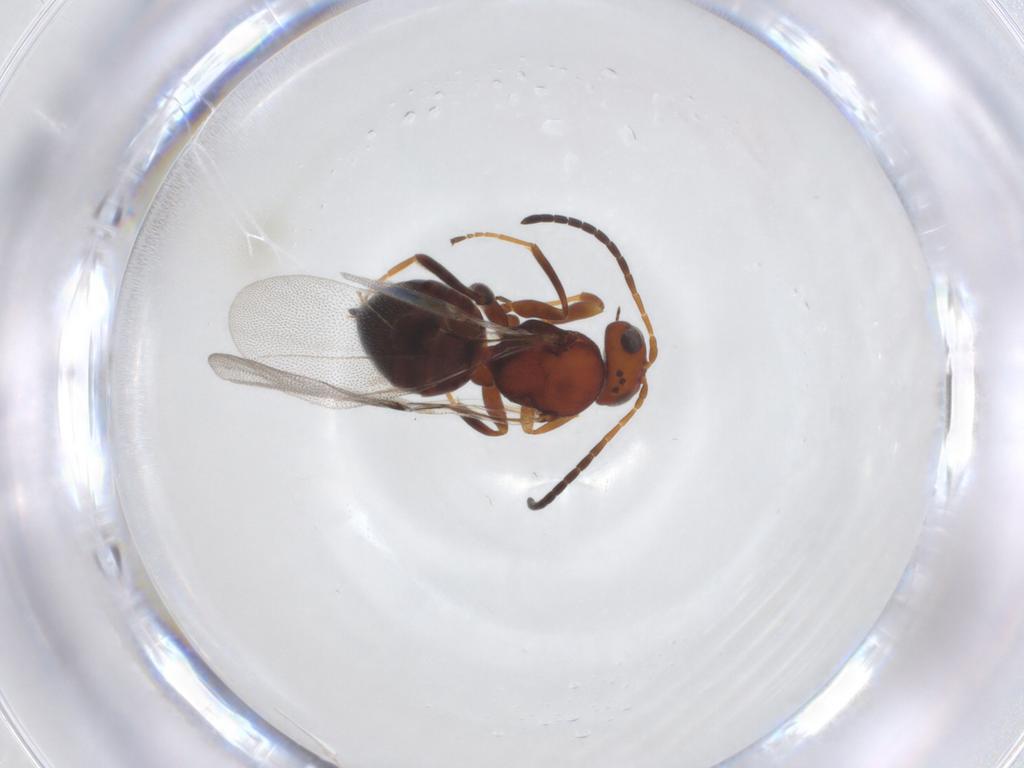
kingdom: Animalia
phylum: Arthropoda
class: Insecta
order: Hymenoptera
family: Cynipidae
